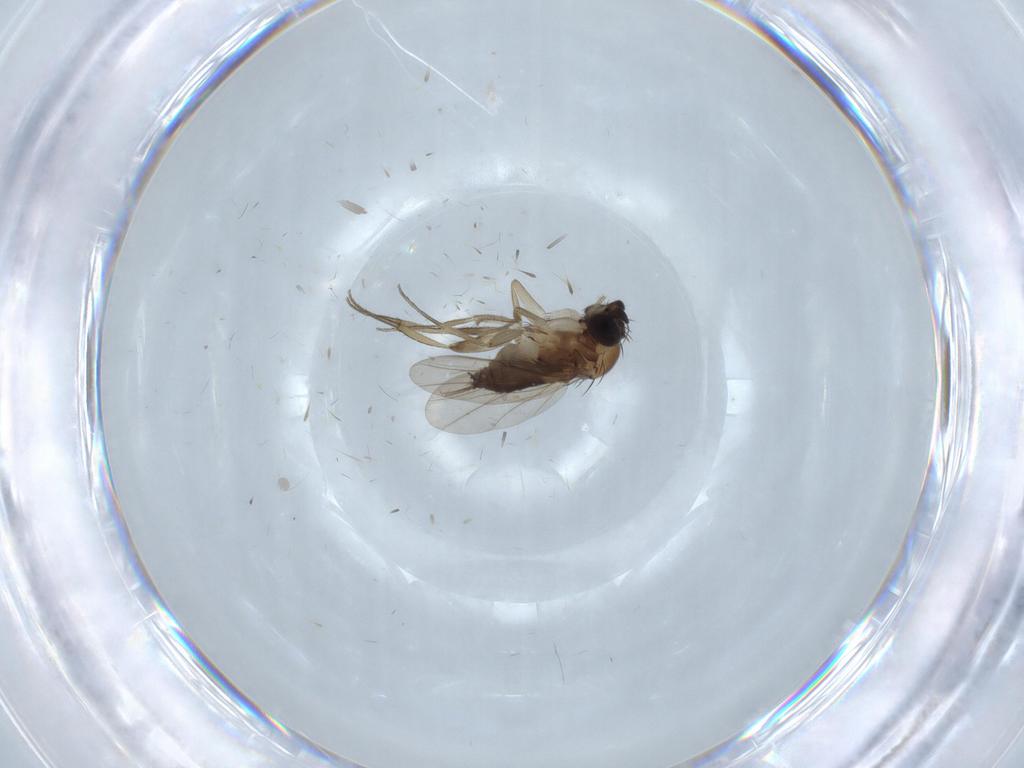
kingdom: Animalia
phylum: Arthropoda
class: Insecta
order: Diptera
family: Phoridae
